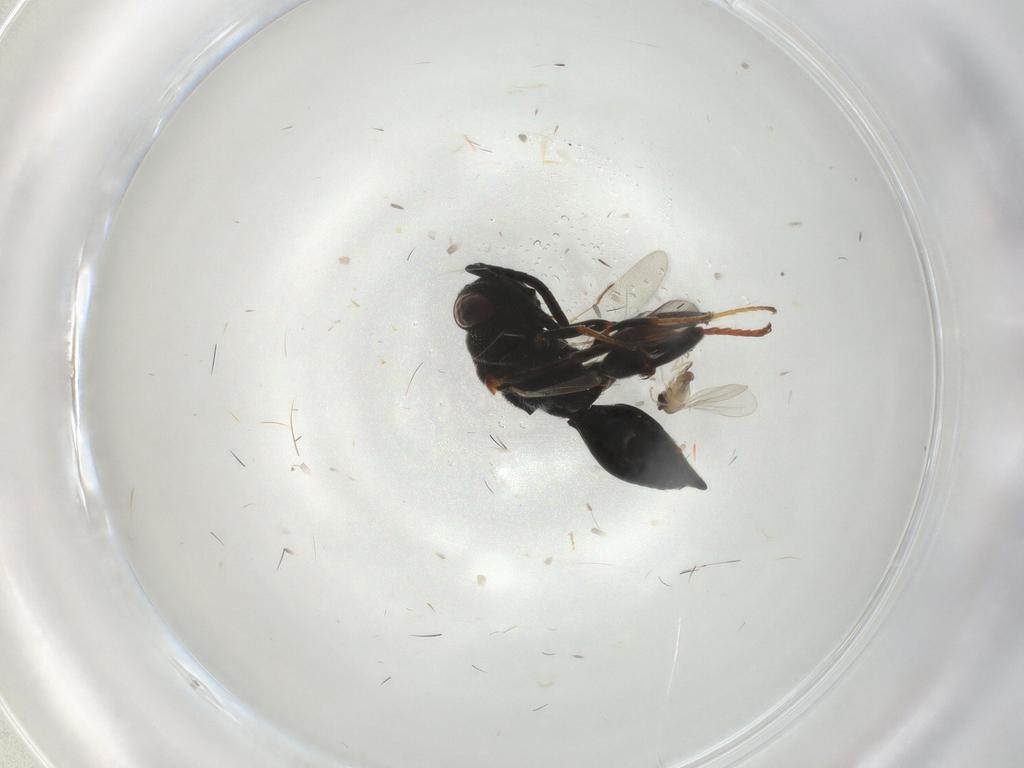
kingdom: Animalia
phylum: Arthropoda
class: Insecta
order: Diptera
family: Cecidomyiidae
